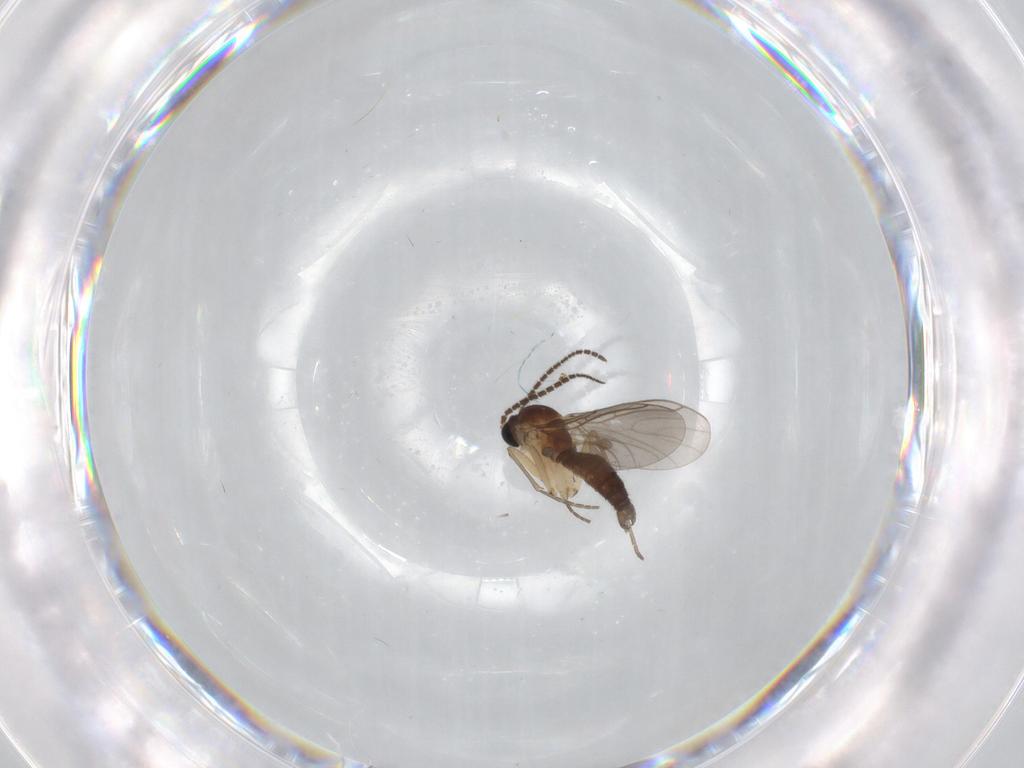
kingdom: Animalia
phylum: Arthropoda
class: Insecta
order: Diptera
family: Sciaridae
